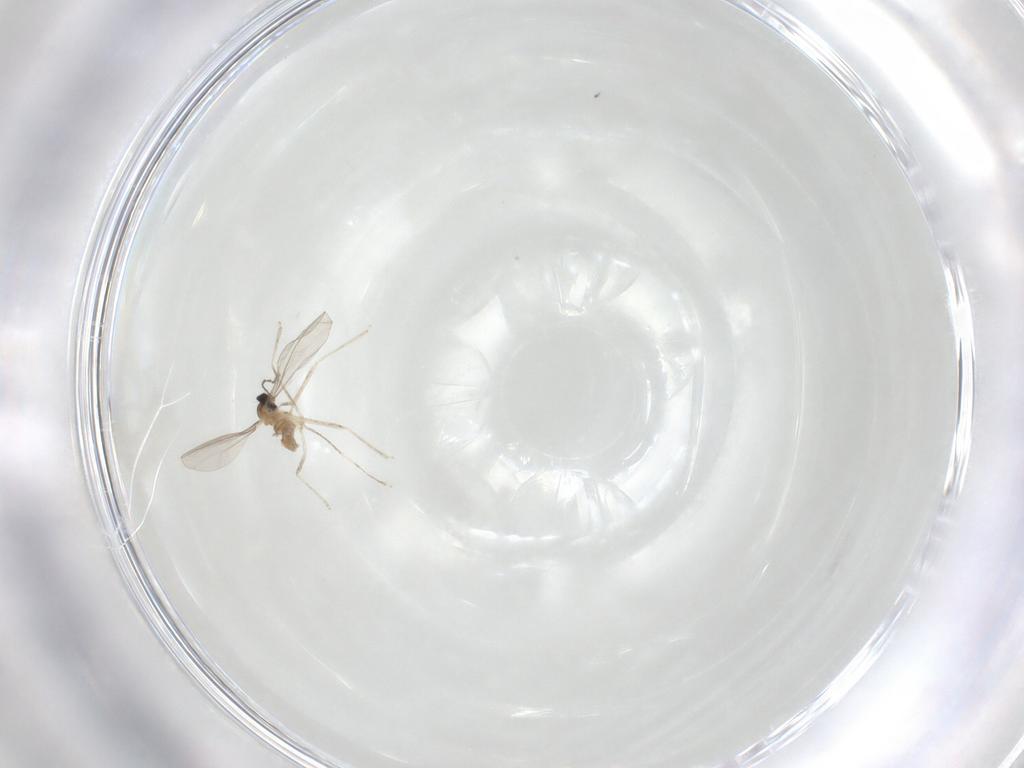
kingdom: Animalia
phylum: Arthropoda
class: Insecta
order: Diptera
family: Cecidomyiidae
